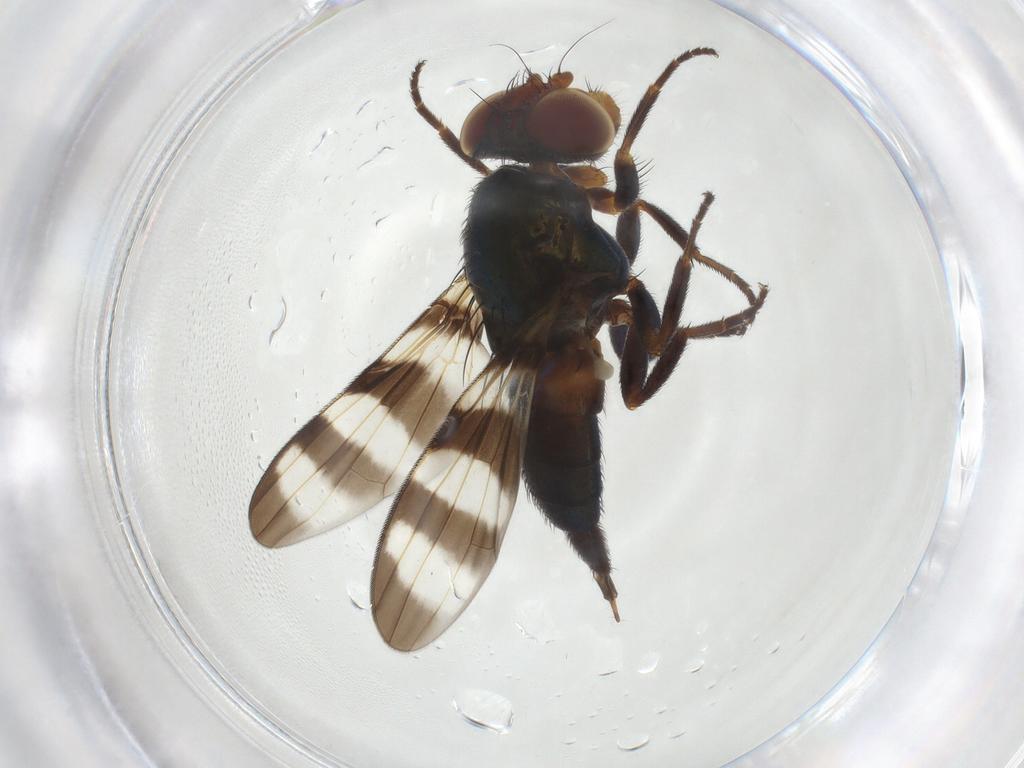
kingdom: Animalia
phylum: Arthropoda
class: Insecta
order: Diptera
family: Ulidiidae
